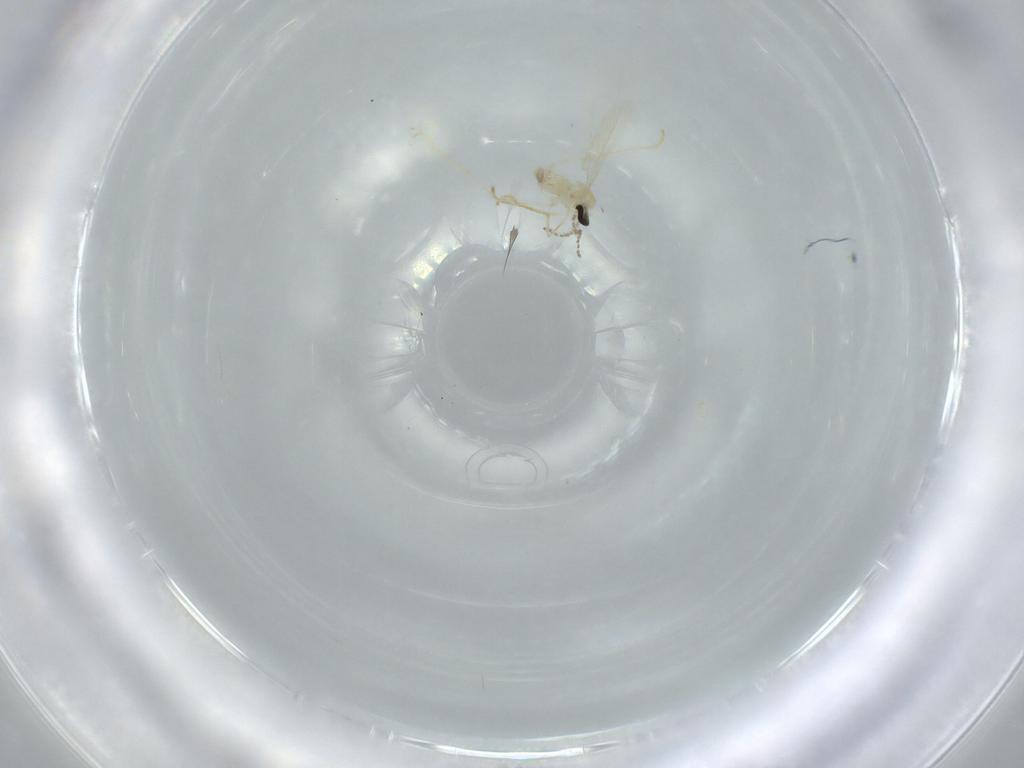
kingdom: Animalia
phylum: Arthropoda
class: Insecta
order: Diptera
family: Cecidomyiidae
